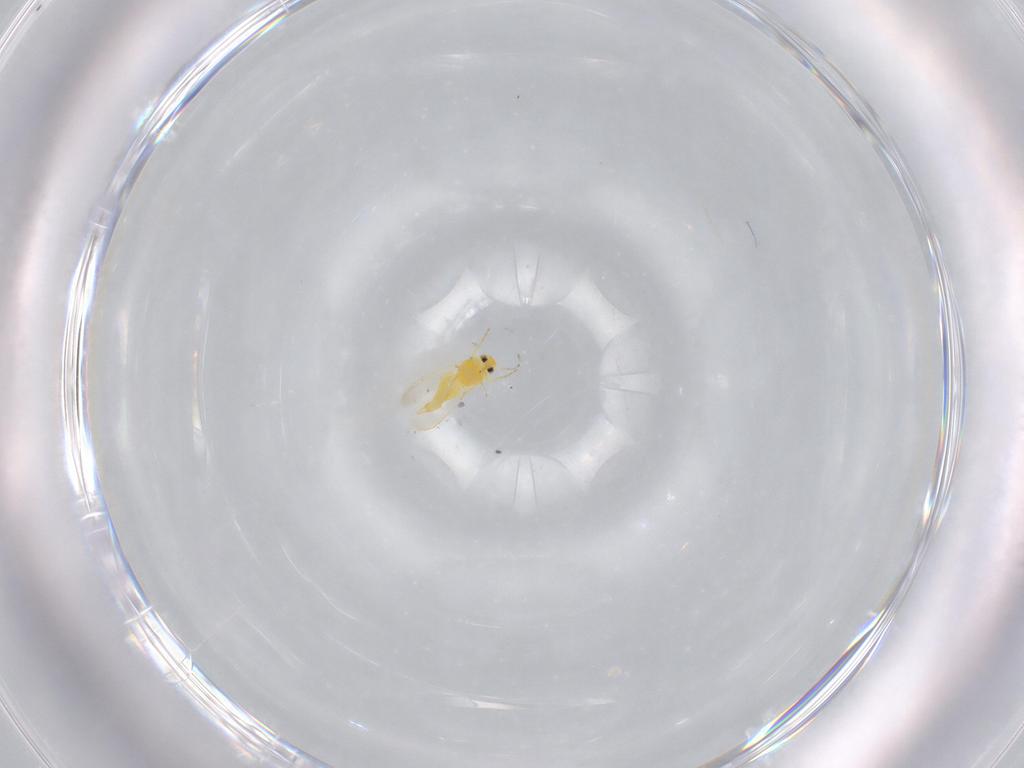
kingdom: Animalia
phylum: Arthropoda
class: Insecta
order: Hemiptera
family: Aleyrodidae
